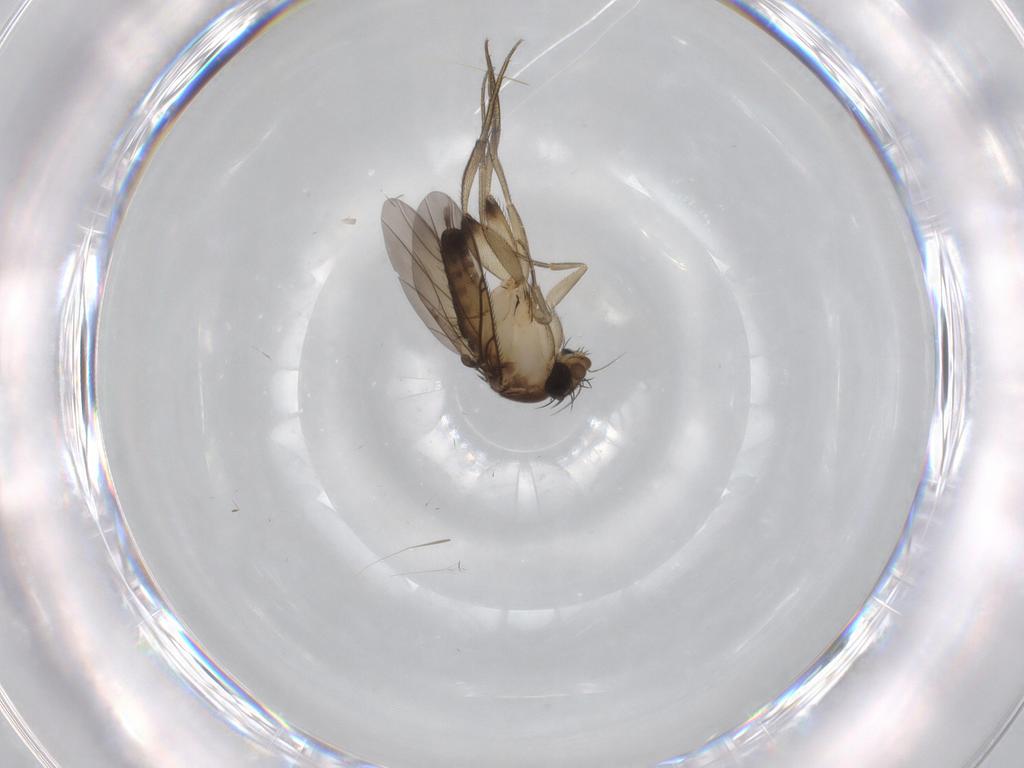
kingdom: Animalia
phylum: Arthropoda
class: Insecta
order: Diptera
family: Phoridae
